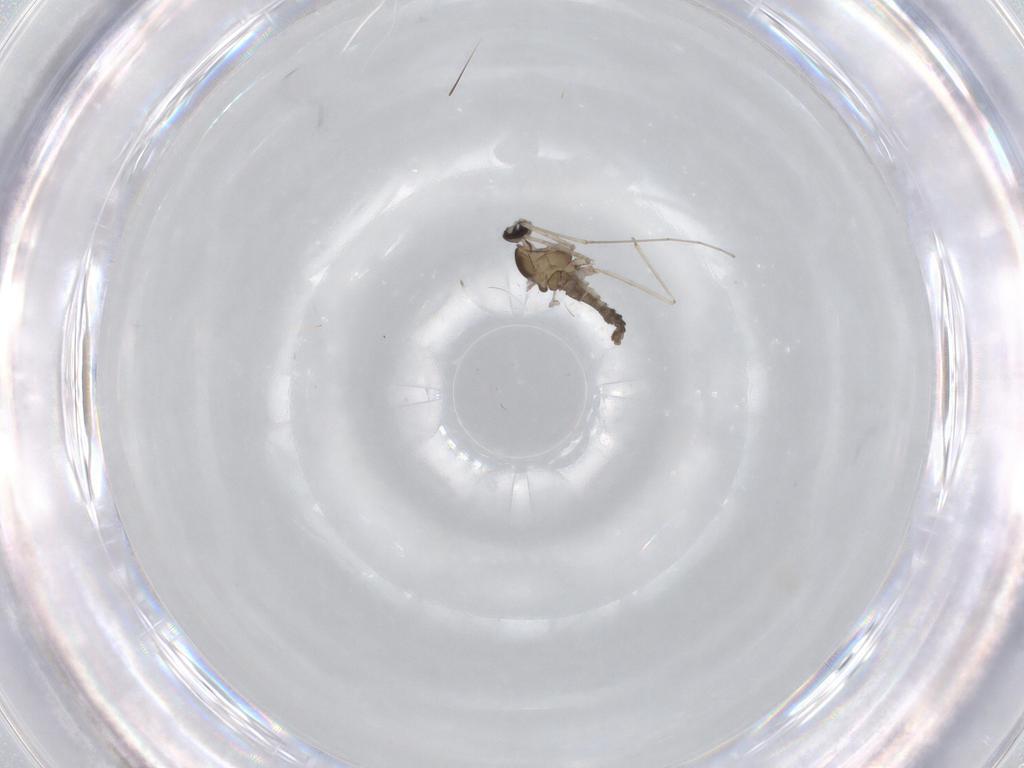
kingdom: Animalia
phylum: Arthropoda
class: Insecta
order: Diptera
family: Cecidomyiidae
